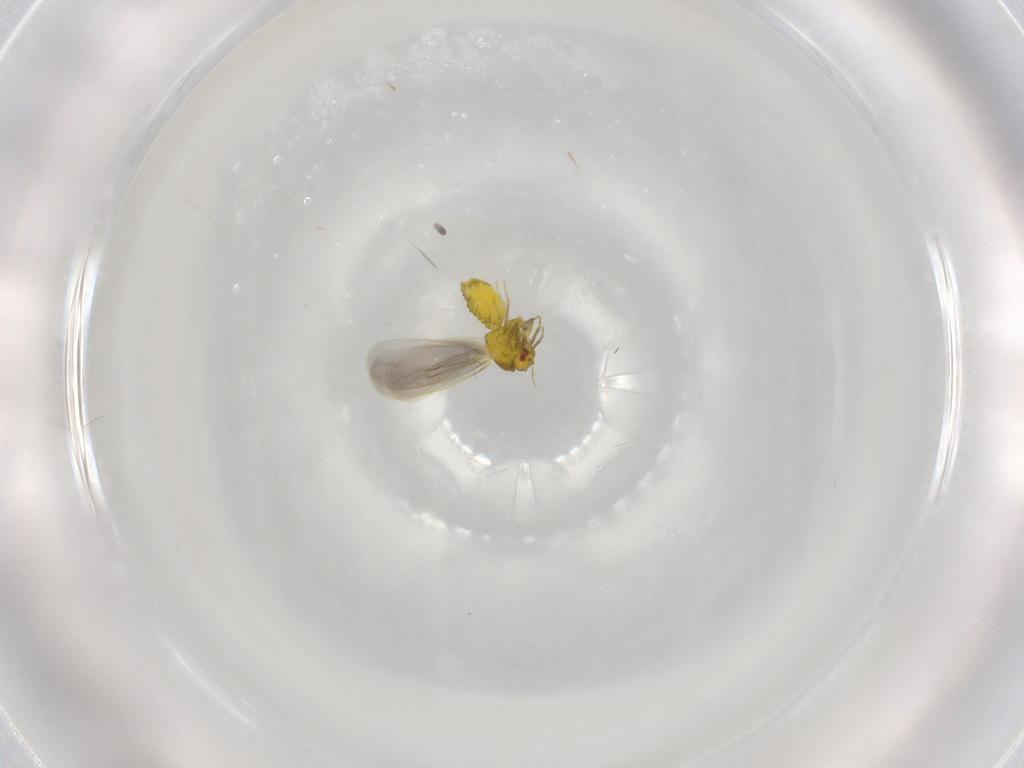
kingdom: Animalia
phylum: Arthropoda
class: Insecta
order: Hemiptera
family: Aleyrodidae
